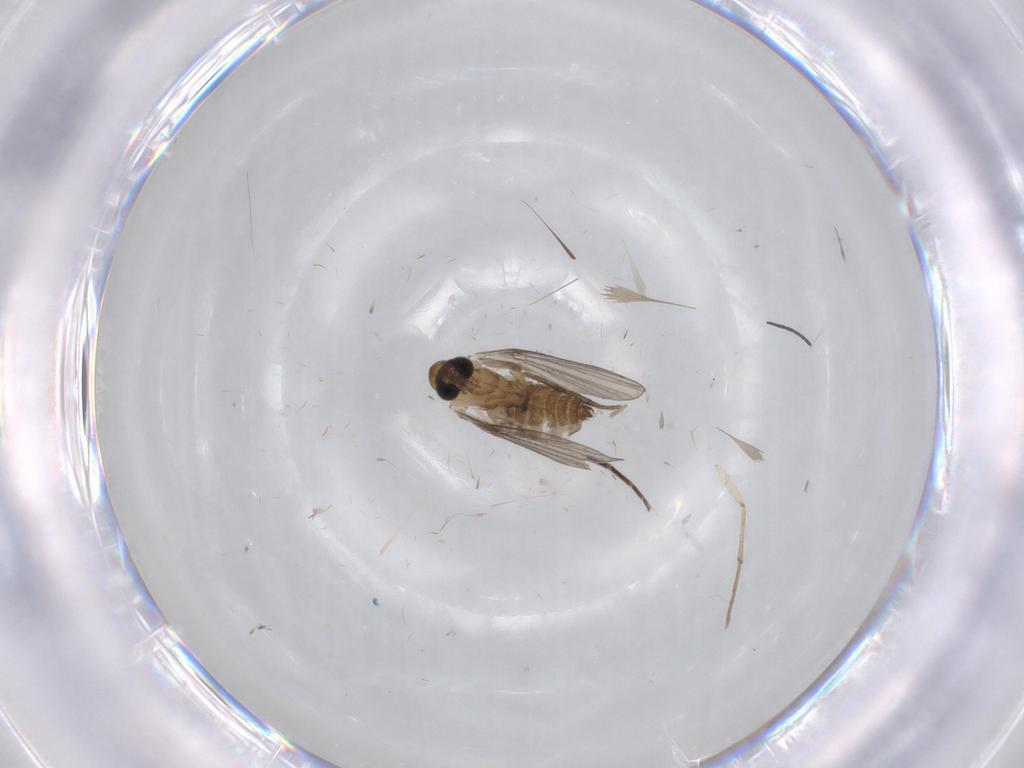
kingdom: Animalia
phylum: Arthropoda
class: Insecta
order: Diptera
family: Phoridae
